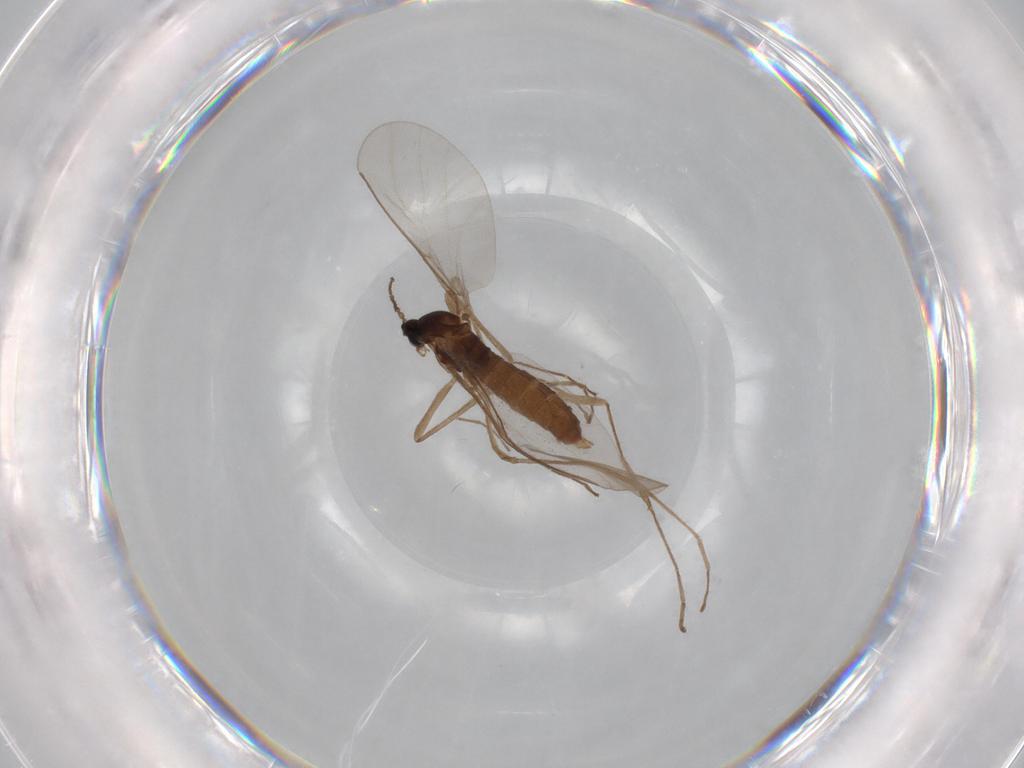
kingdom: Animalia
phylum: Arthropoda
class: Insecta
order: Diptera
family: Cecidomyiidae
